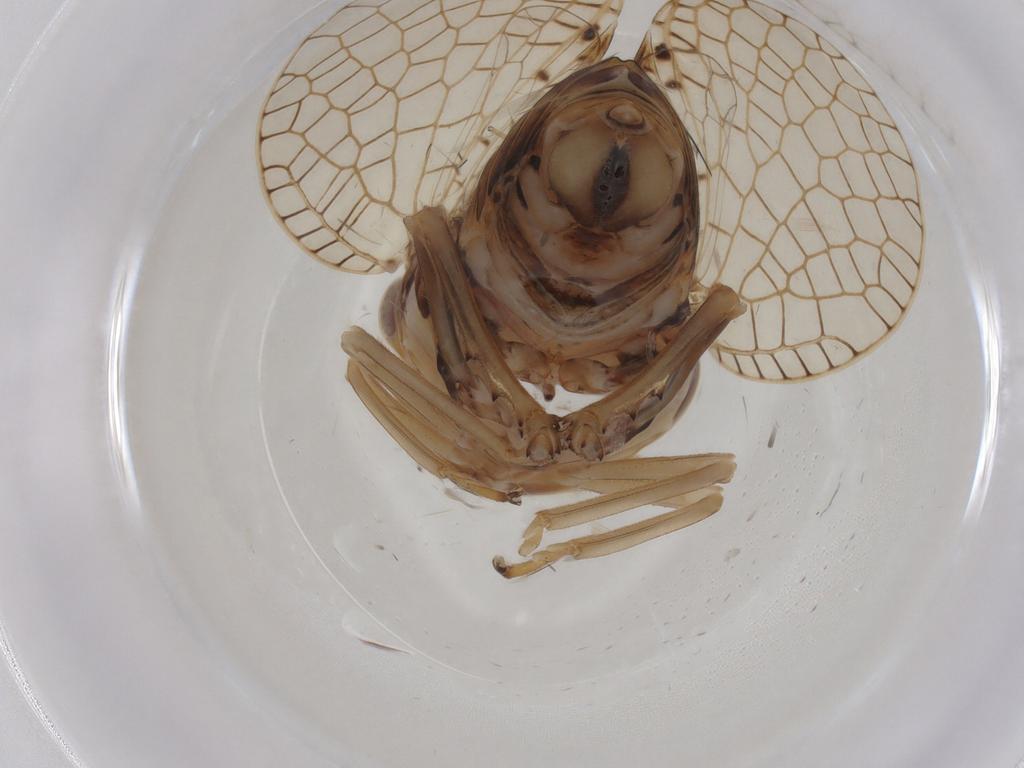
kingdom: Animalia
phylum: Arthropoda
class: Insecta
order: Hemiptera
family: Tropiduchidae
